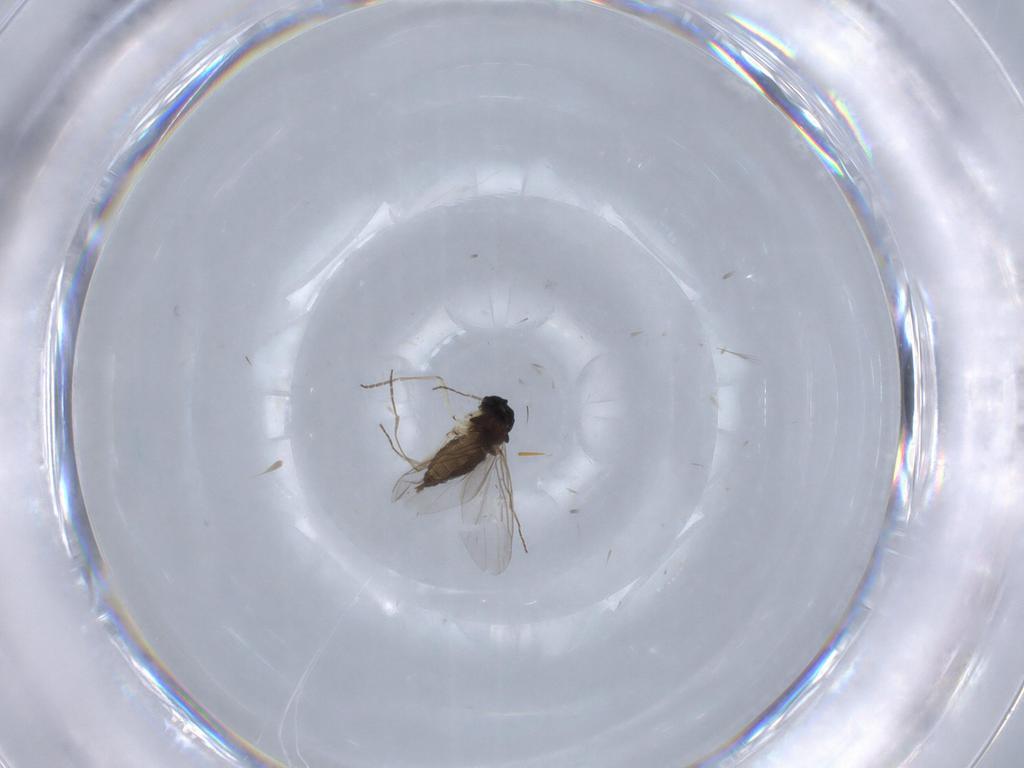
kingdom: Animalia
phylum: Arthropoda
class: Insecta
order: Diptera
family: Sciaridae
